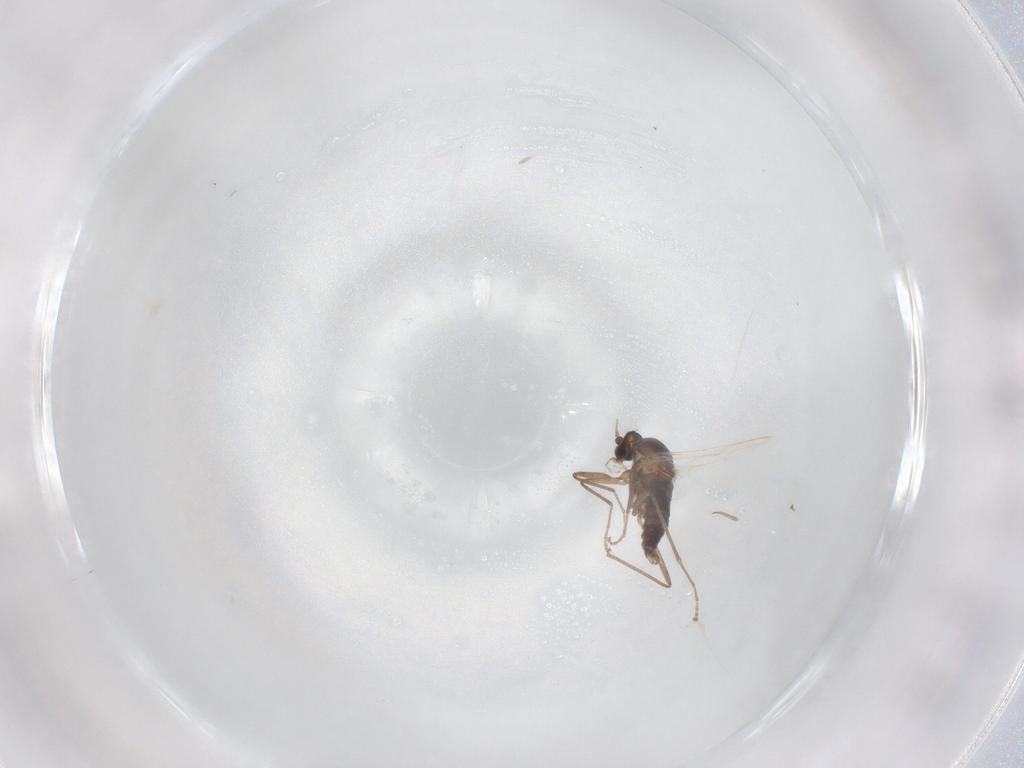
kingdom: Animalia
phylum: Arthropoda
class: Insecta
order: Diptera
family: Cecidomyiidae
